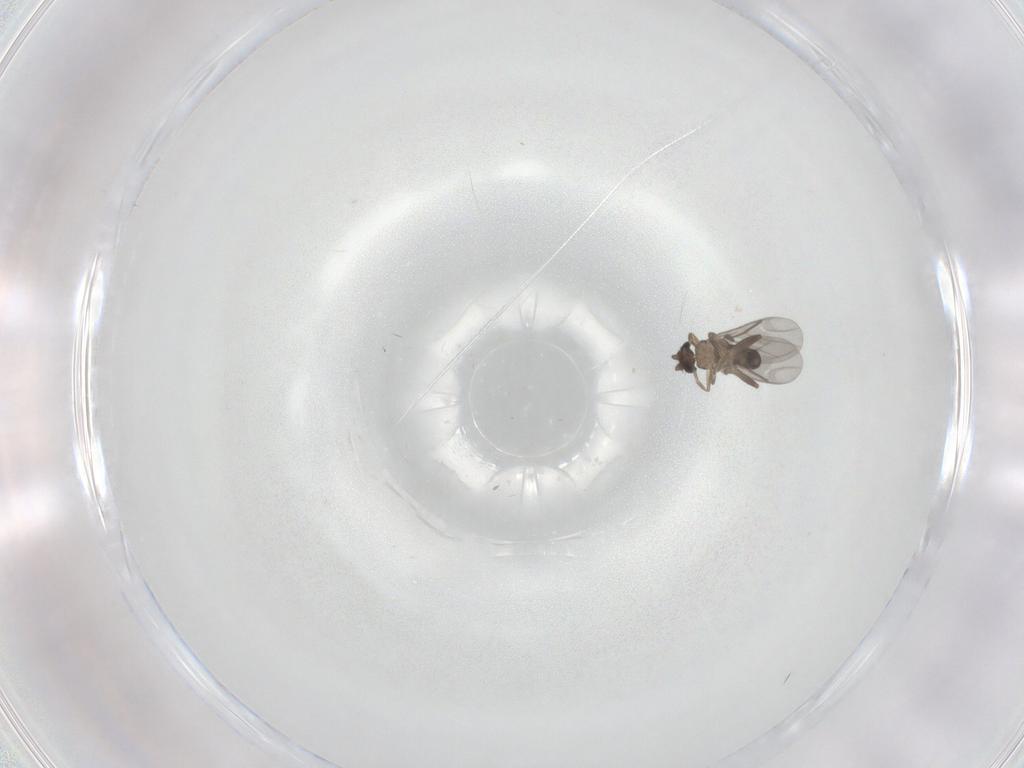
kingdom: Animalia
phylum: Arthropoda
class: Insecta
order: Diptera
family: Cecidomyiidae
